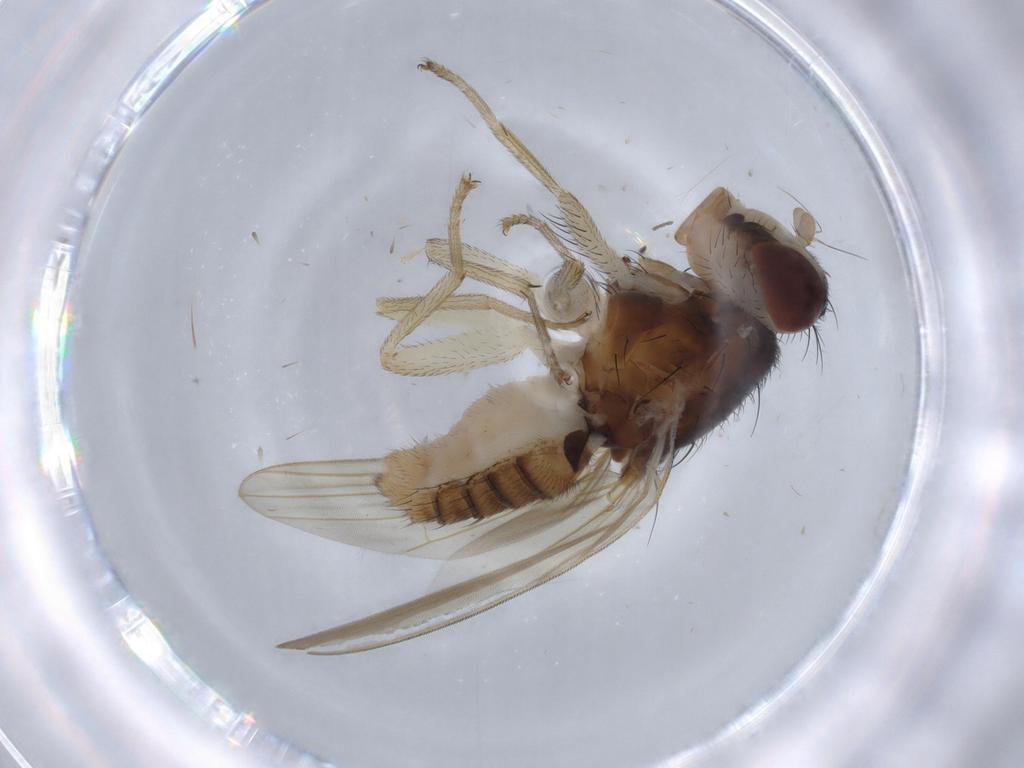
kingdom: Animalia
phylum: Arthropoda
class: Insecta
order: Diptera
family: Lauxaniidae
